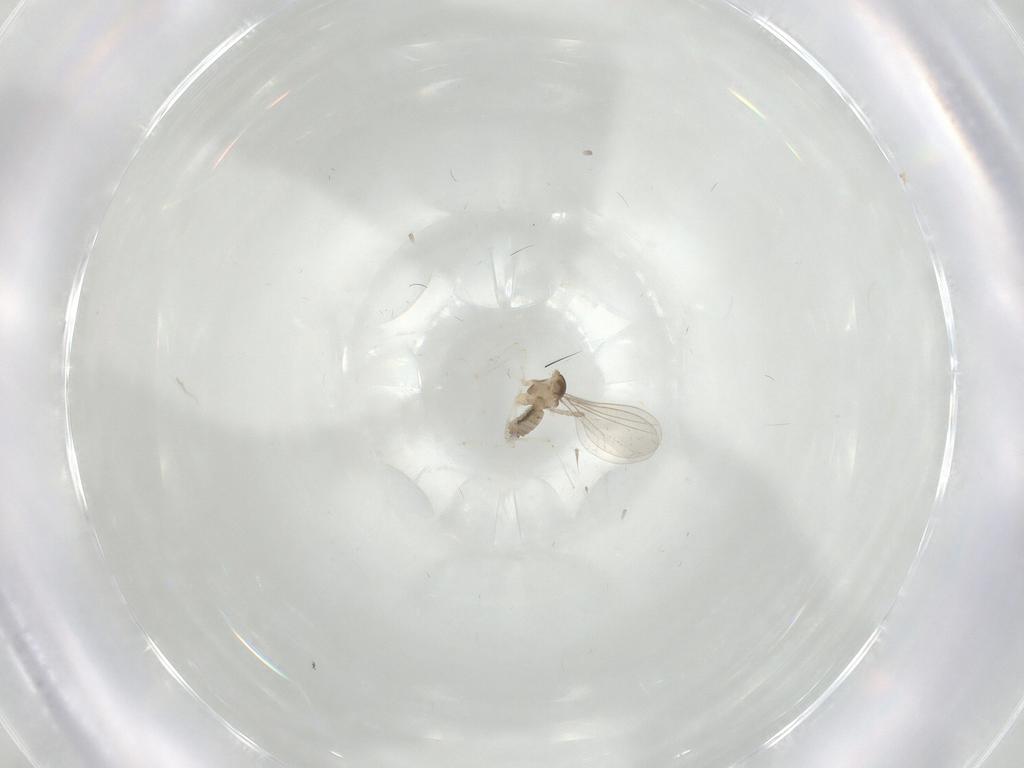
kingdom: Animalia
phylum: Arthropoda
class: Insecta
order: Diptera
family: Cecidomyiidae
